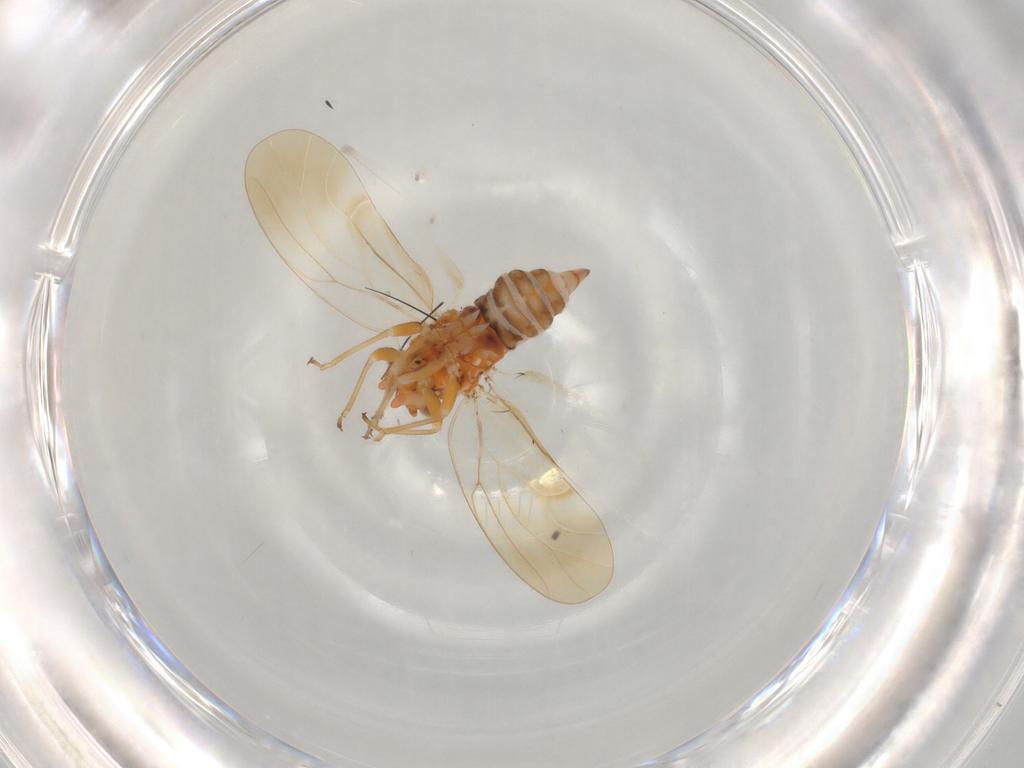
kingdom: Animalia
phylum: Arthropoda
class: Insecta
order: Hemiptera
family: Psyllidae
